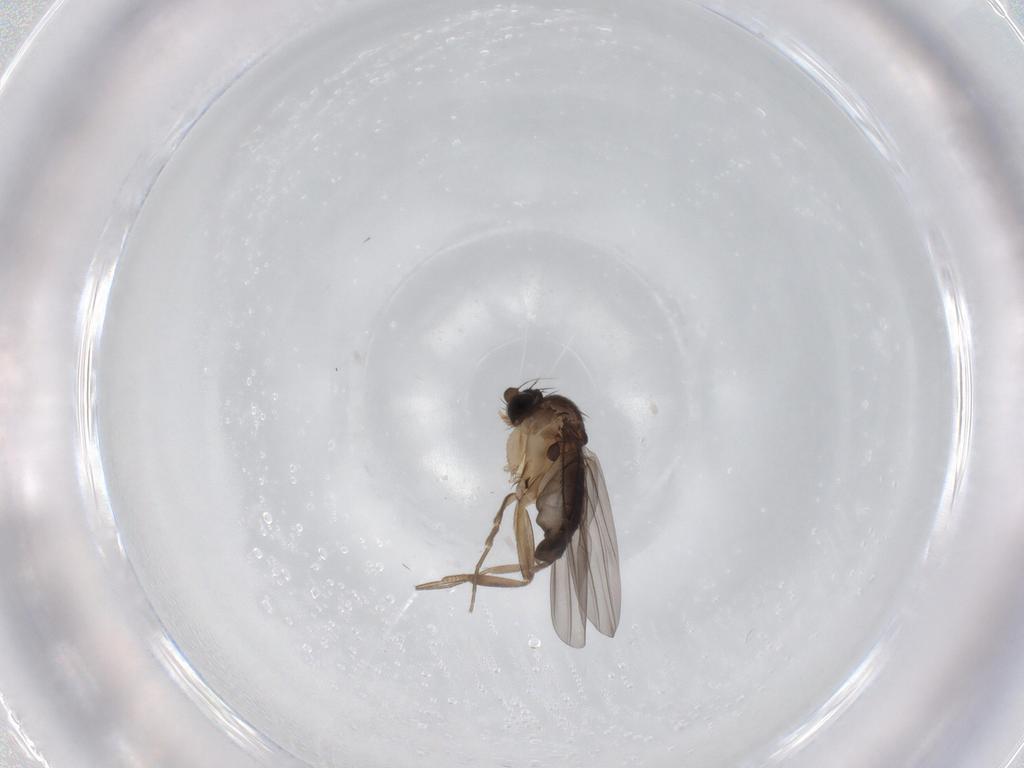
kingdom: Animalia
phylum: Arthropoda
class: Insecta
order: Diptera
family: Phoridae
